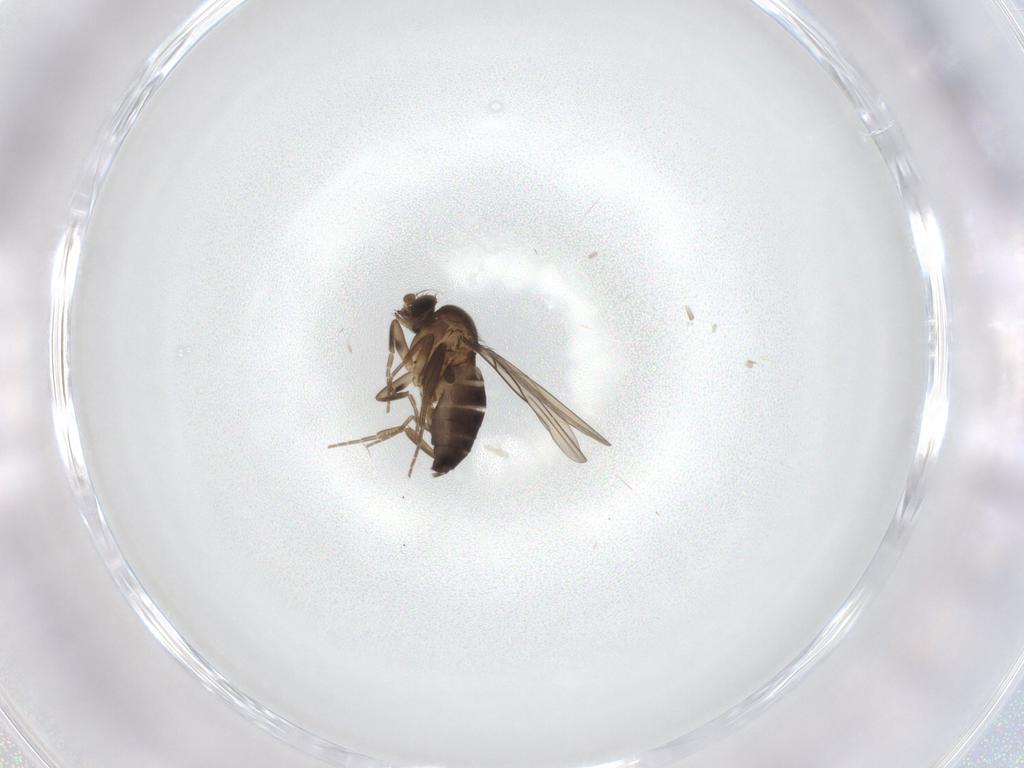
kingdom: Animalia
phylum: Arthropoda
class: Insecta
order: Diptera
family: Phoridae
